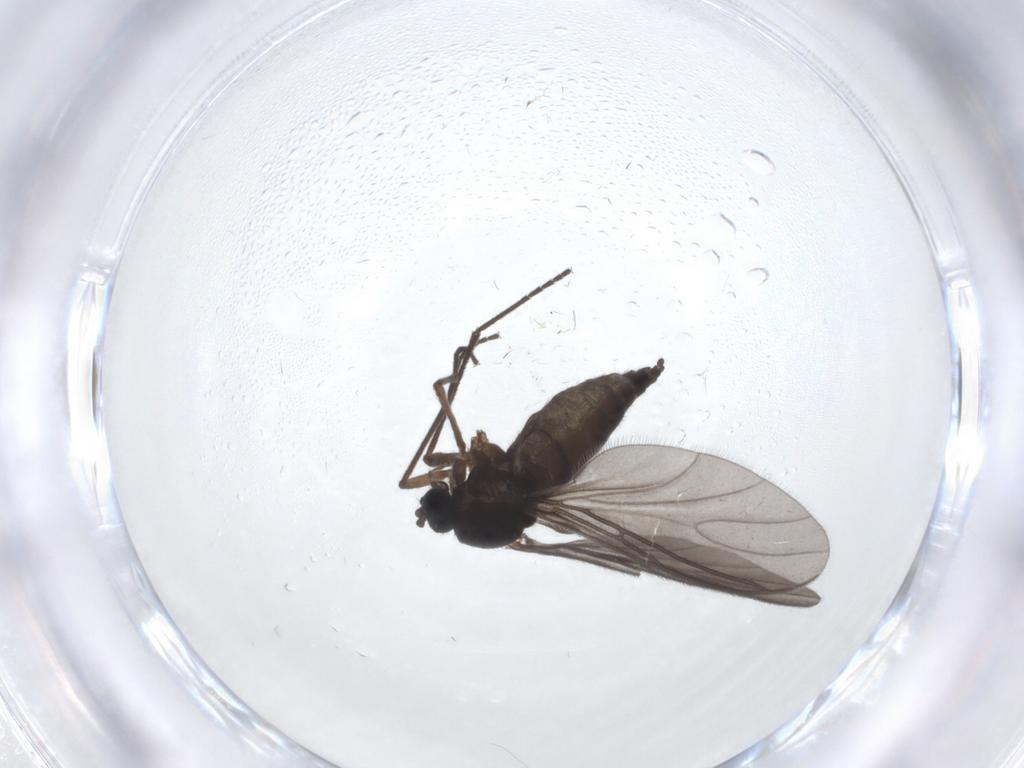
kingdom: Animalia
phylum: Arthropoda
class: Insecta
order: Diptera
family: Sciaridae
